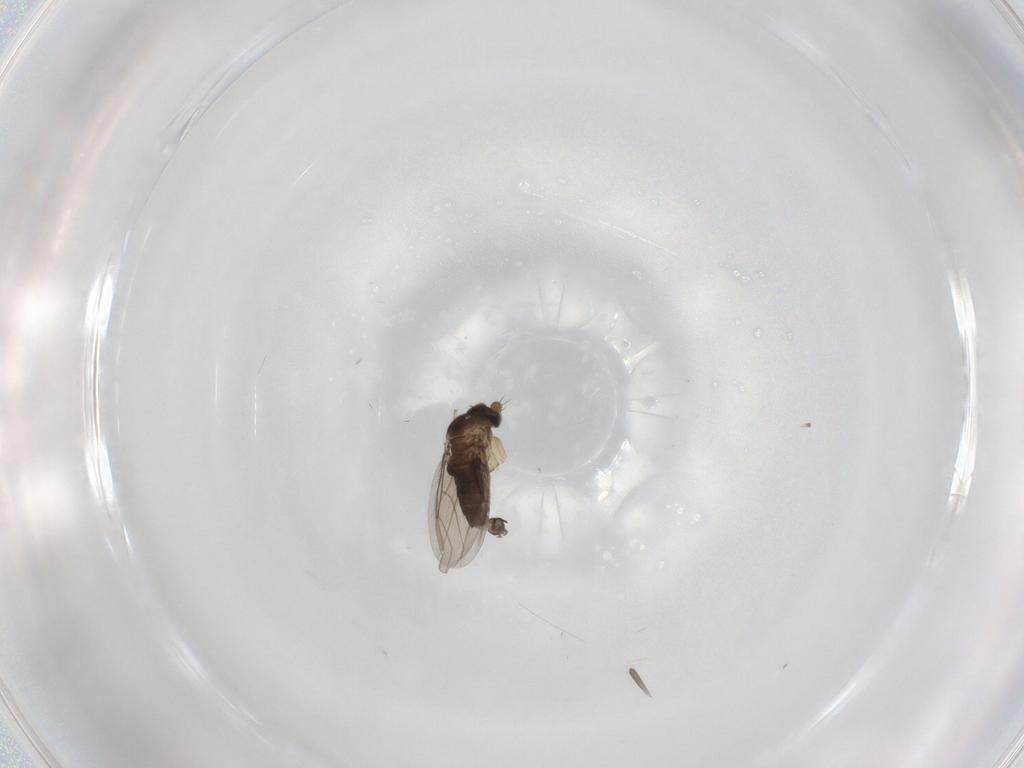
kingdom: Animalia
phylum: Arthropoda
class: Insecta
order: Diptera
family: Phoridae
